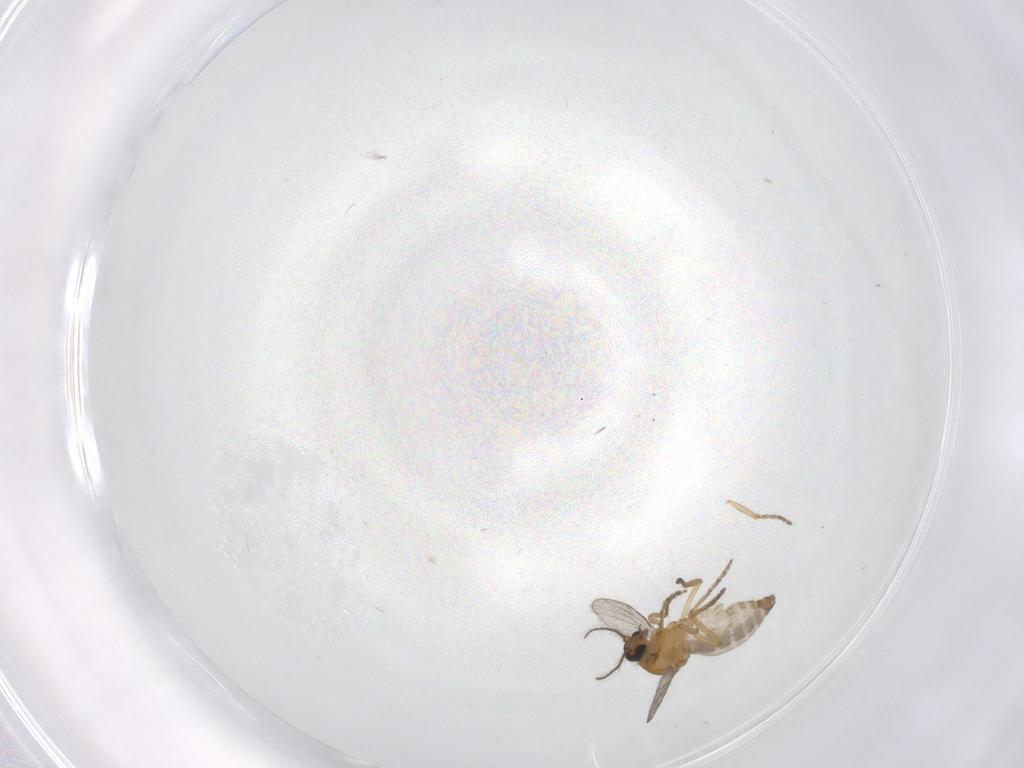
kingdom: Animalia
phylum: Arthropoda
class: Insecta
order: Diptera
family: Ceratopogonidae
